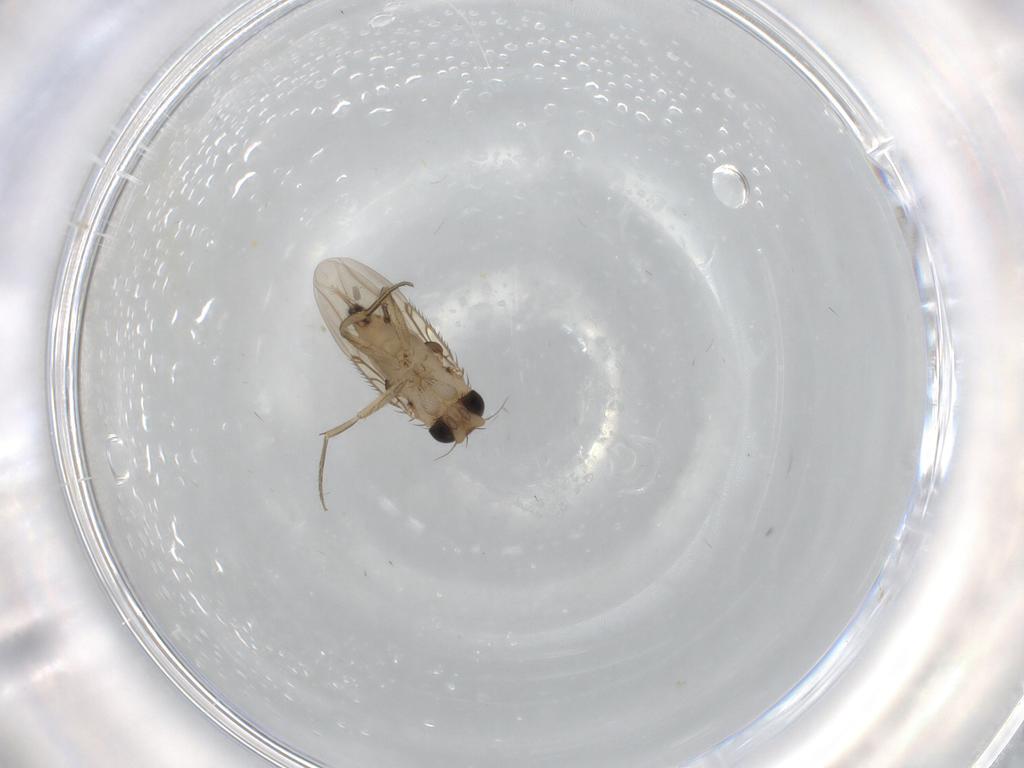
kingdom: Animalia
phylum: Arthropoda
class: Insecta
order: Diptera
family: Phoridae
